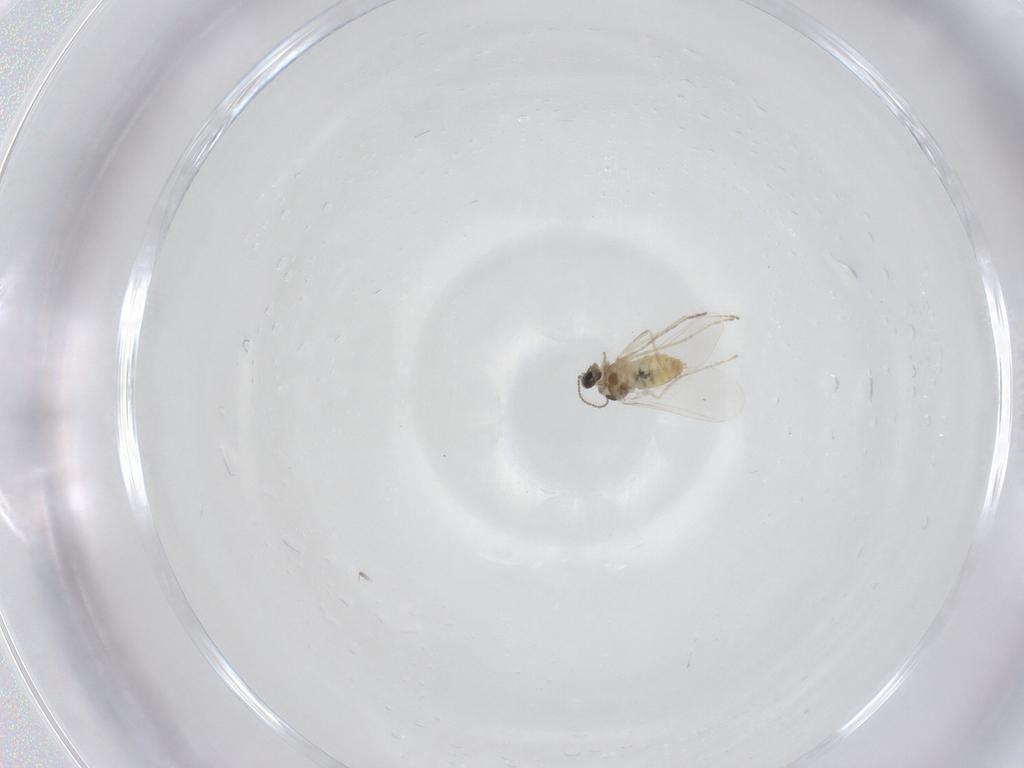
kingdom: Animalia
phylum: Arthropoda
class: Insecta
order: Diptera
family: Cecidomyiidae
